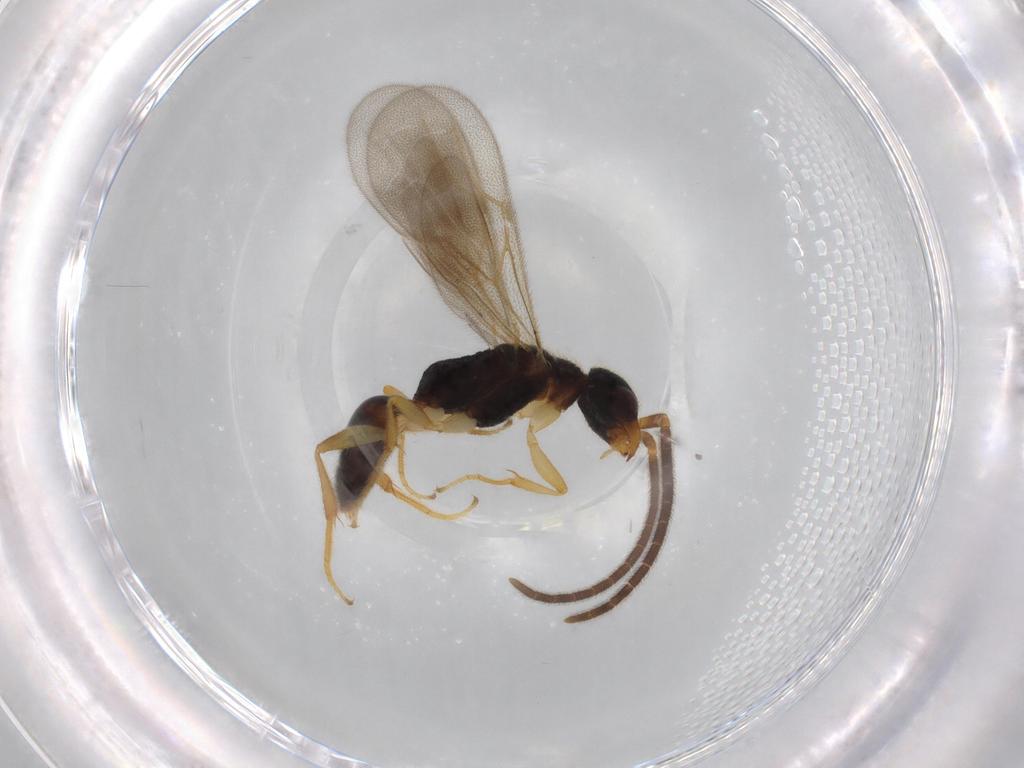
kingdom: Animalia
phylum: Arthropoda
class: Insecta
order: Hymenoptera
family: Bethylidae
